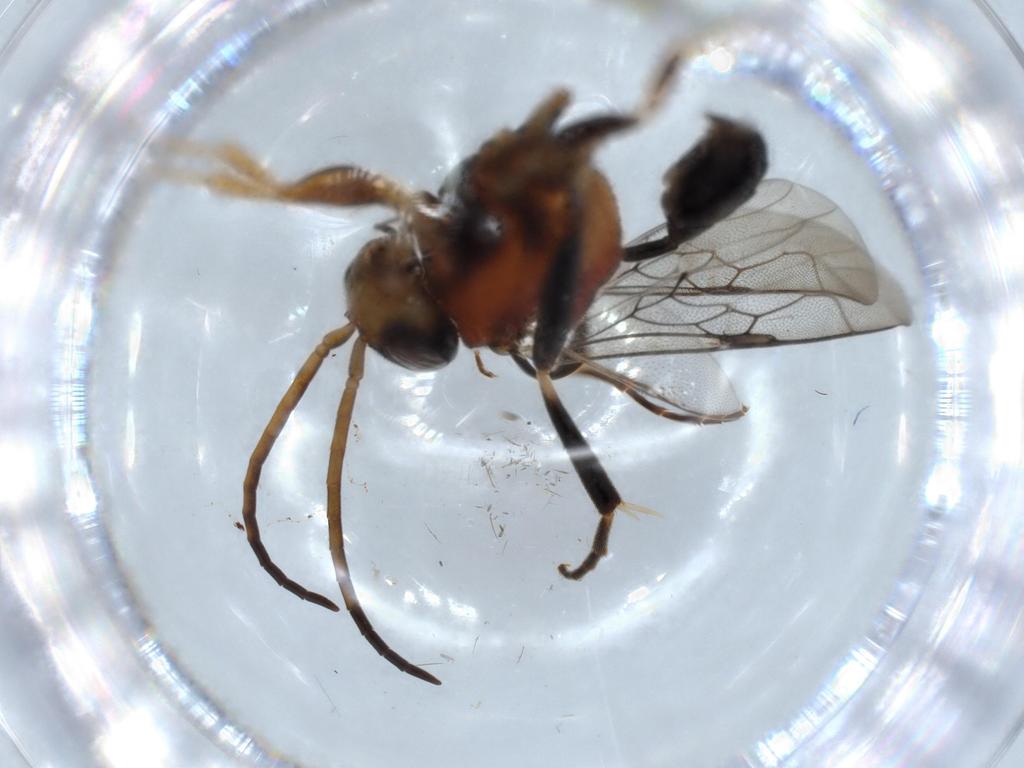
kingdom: Animalia
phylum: Arthropoda
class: Insecta
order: Hymenoptera
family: Evaniidae
